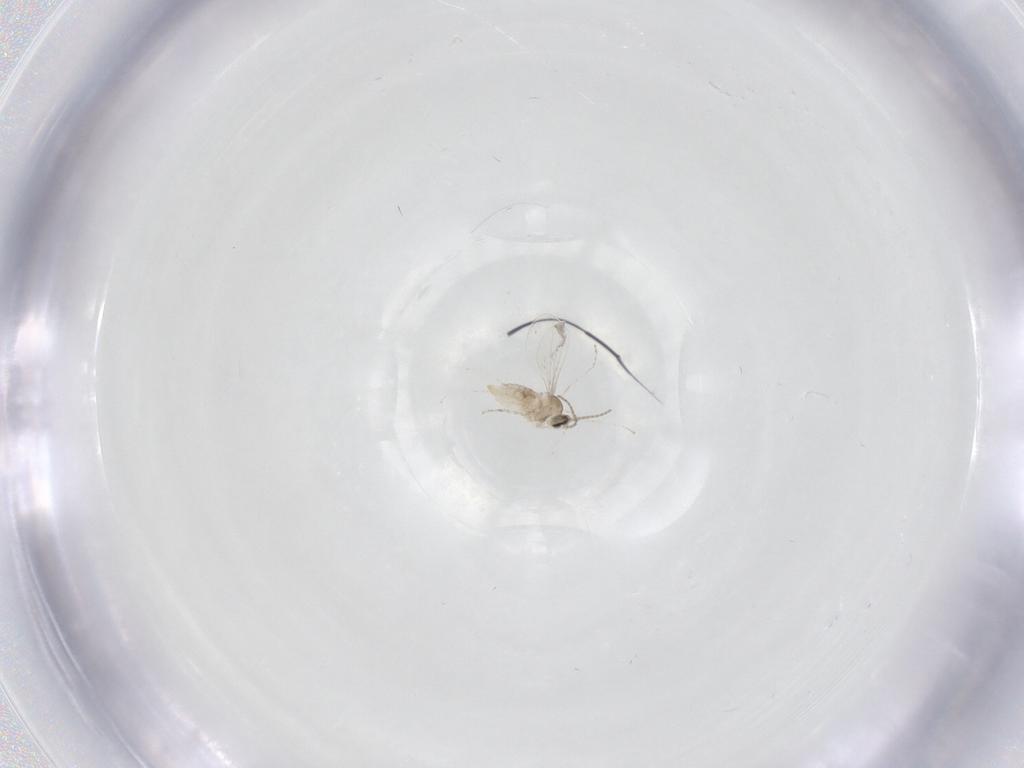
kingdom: Animalia
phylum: Arthropoda
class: Insecta
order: Diptera
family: Cecidomyiidae
